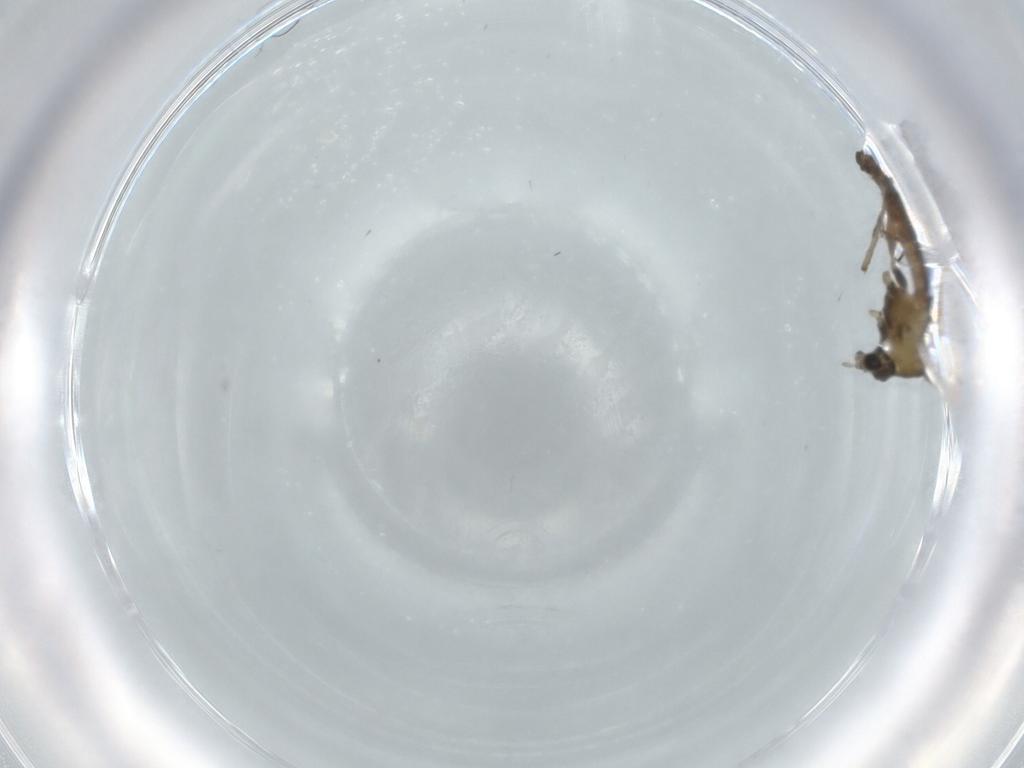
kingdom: Animalia
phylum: Arthropoda
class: Insecta
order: Diptera
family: Chironomidae
